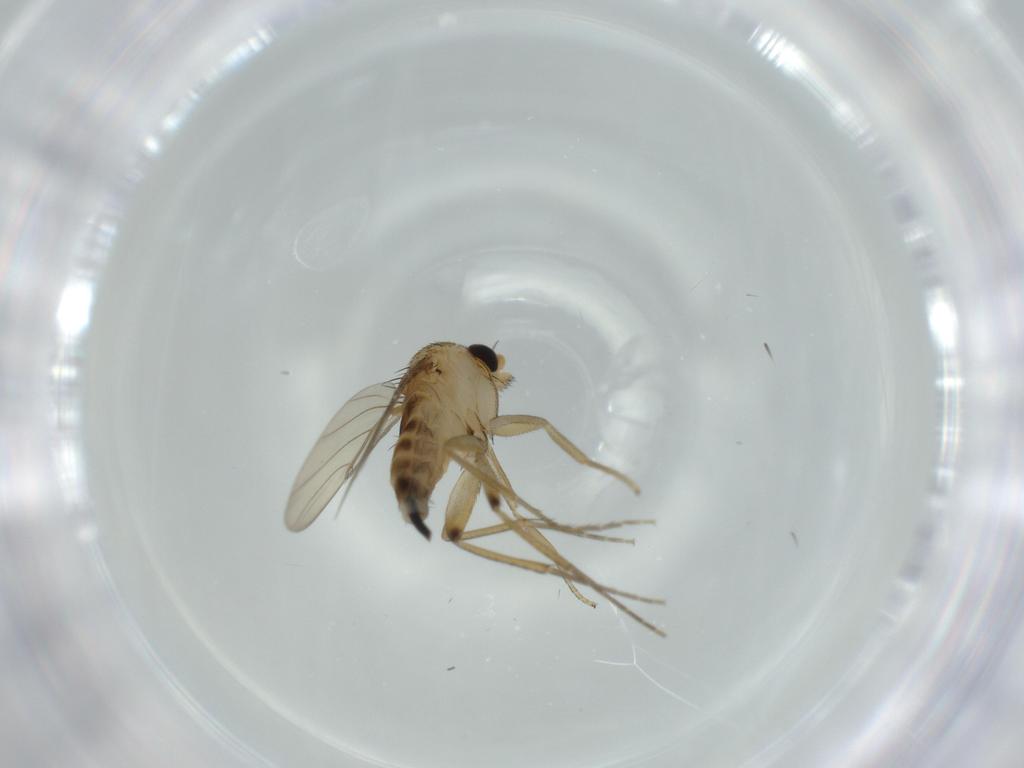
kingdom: Animalia
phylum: Arthropoda
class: Insecta
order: Diptera
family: Phoridae
